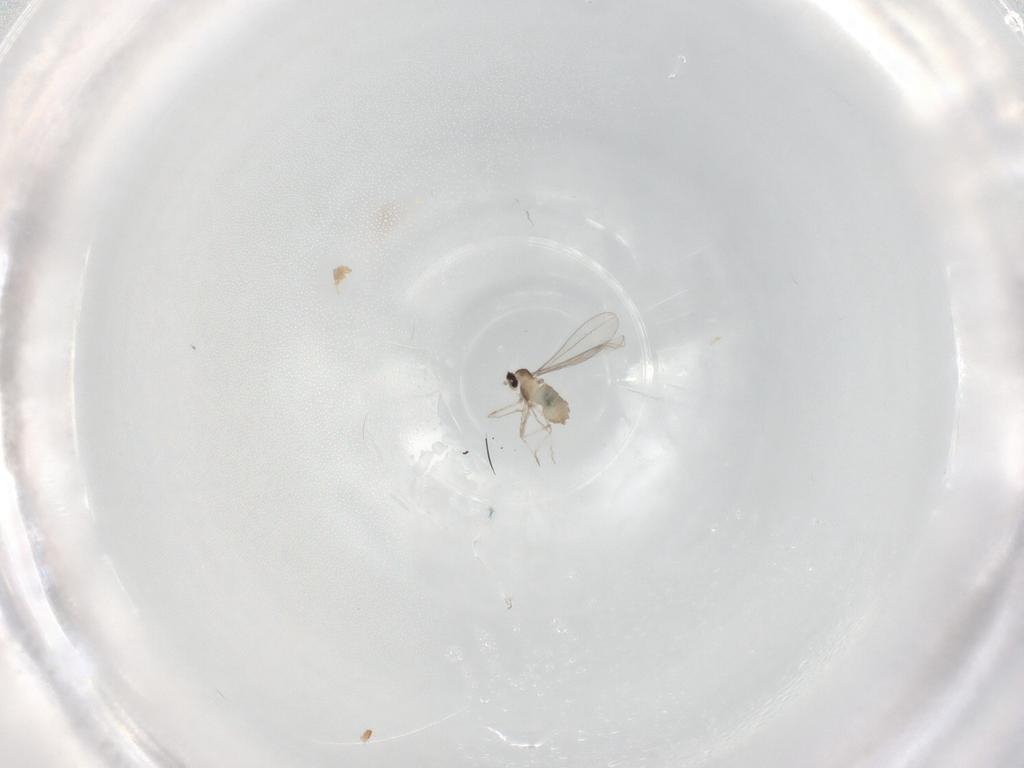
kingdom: Animalia
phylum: Arthropoda
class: Insecta
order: Diptera
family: Cecidomyiidae
